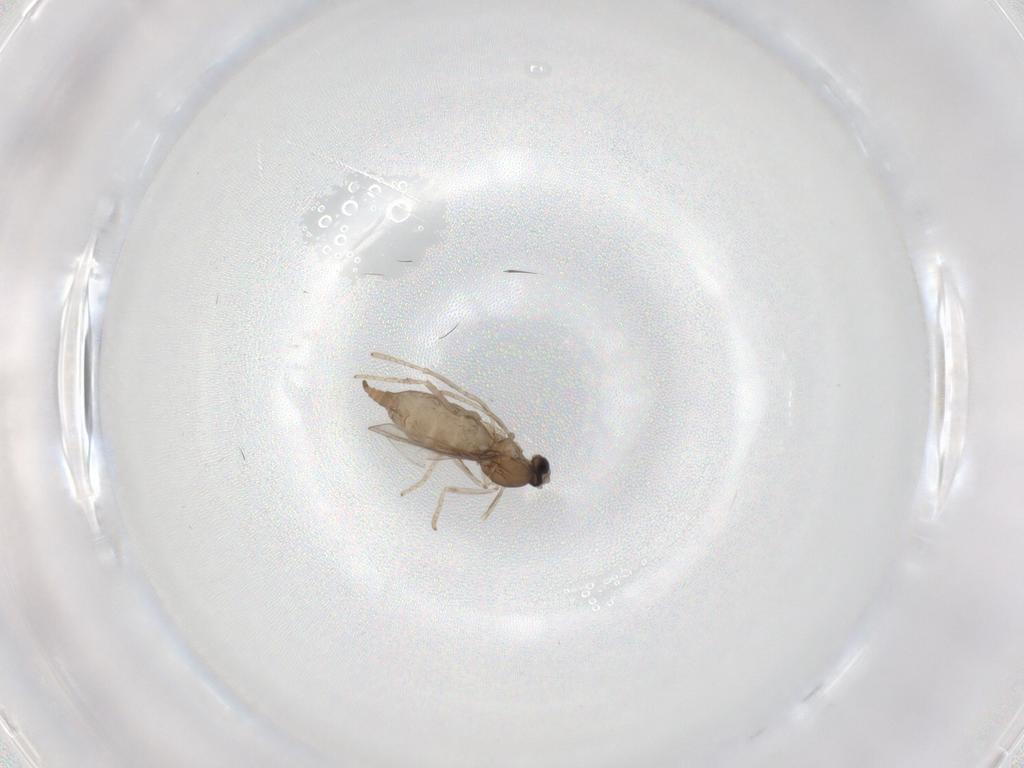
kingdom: Animalia
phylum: Arthropoda
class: Insecta
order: Diptera
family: Cecidomyiidae
